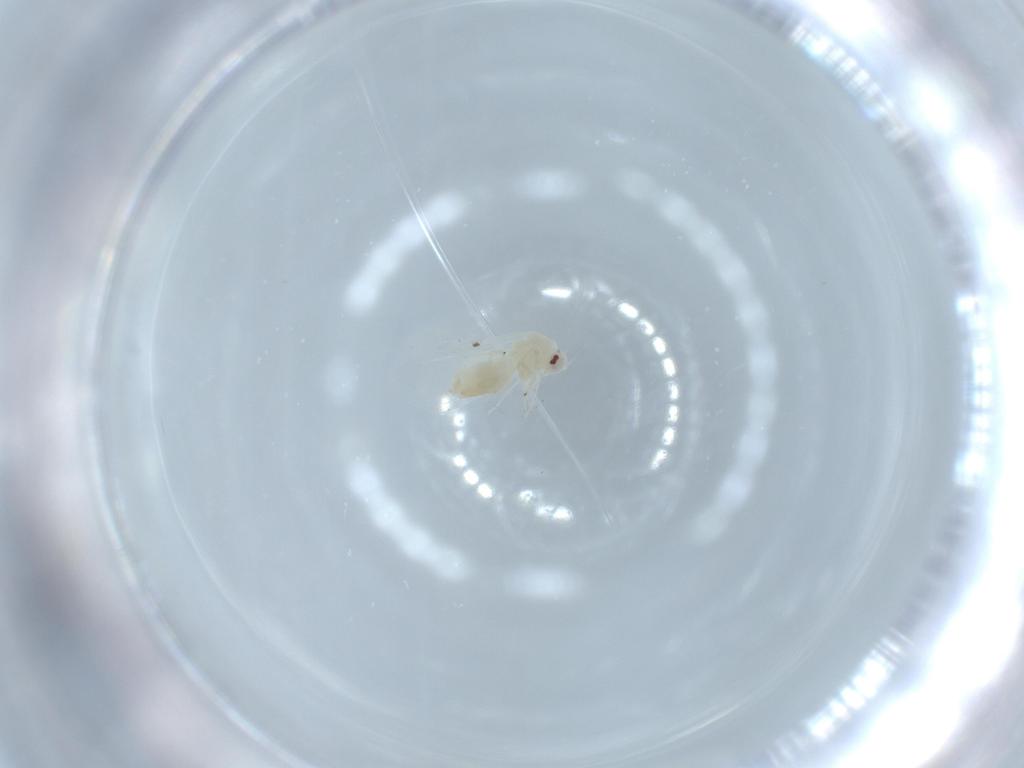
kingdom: Animalia
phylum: Arthropoda
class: Insecta
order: Hemiptera
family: Aleyrodidae
